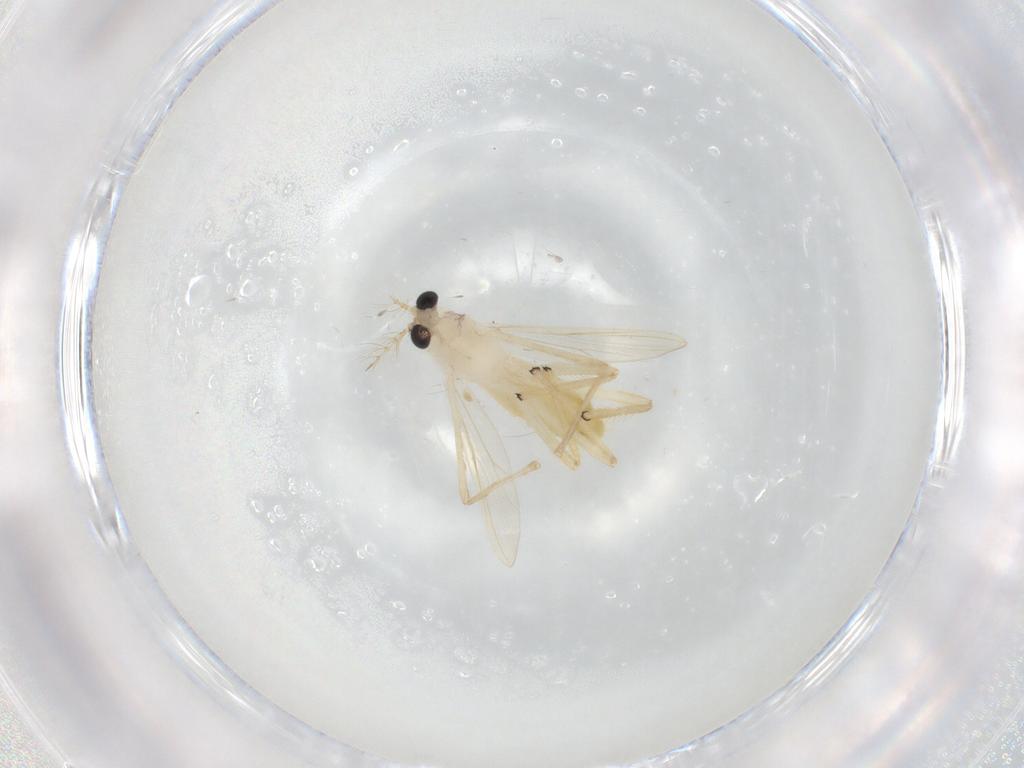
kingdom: Animalia
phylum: Arthropoda
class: Insecta
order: Diptera
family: Chironomidae
